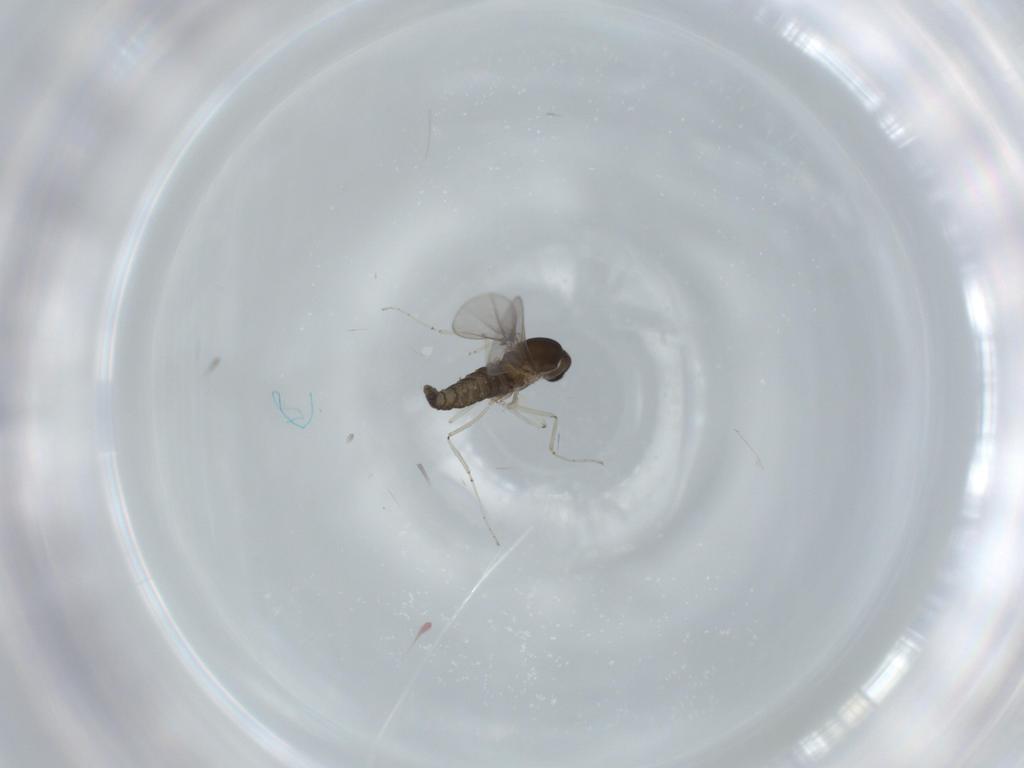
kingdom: Animalia
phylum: Arthropoda
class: Insecta
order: Diptera
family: Cecidomyiidae
